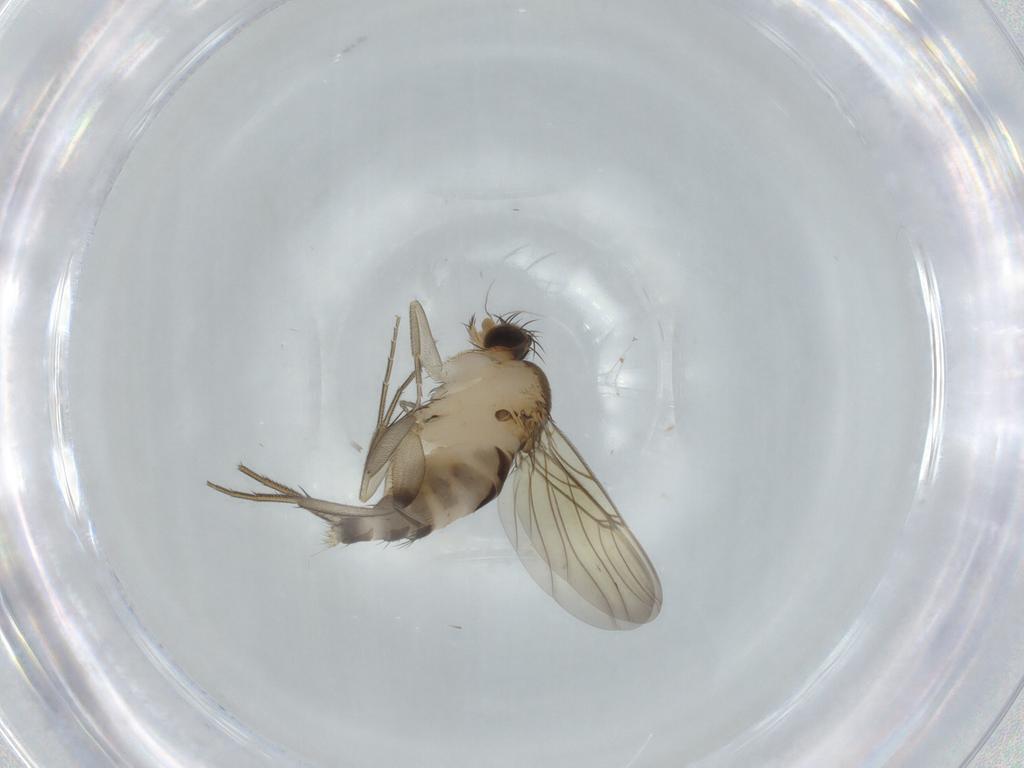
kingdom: Animalia
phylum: Arthropoda
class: Insecta
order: Diptera
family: Phoridae
